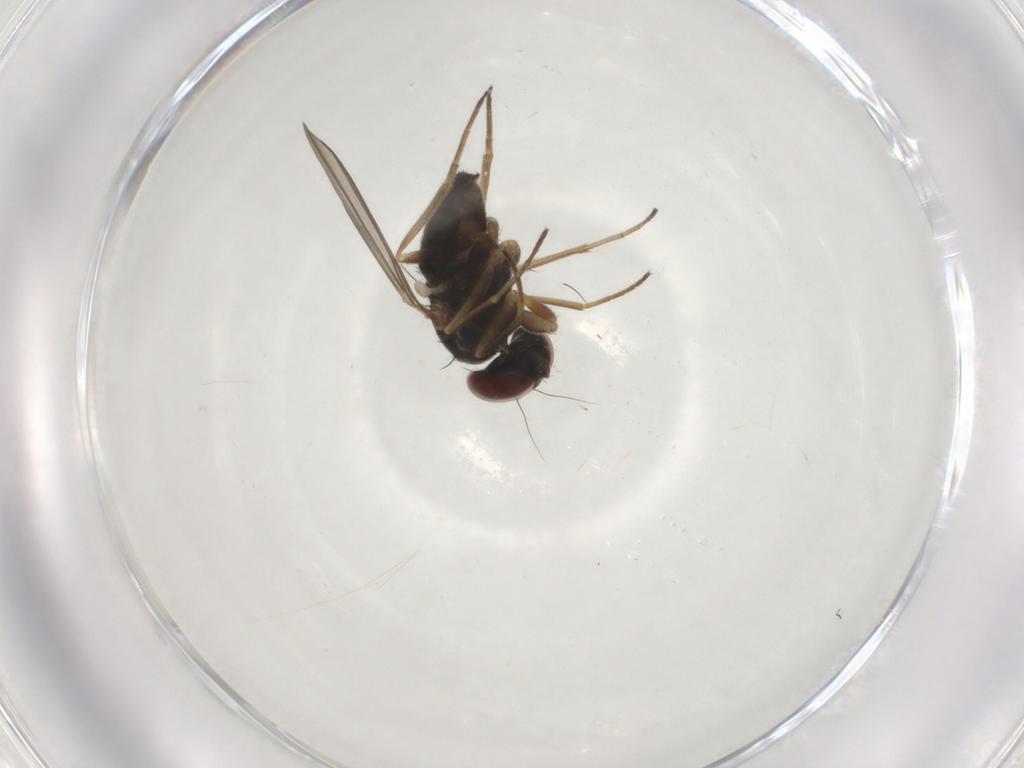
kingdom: Animalia
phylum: Arthropoda
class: Insecta
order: Diptera
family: Dolichopodidae
